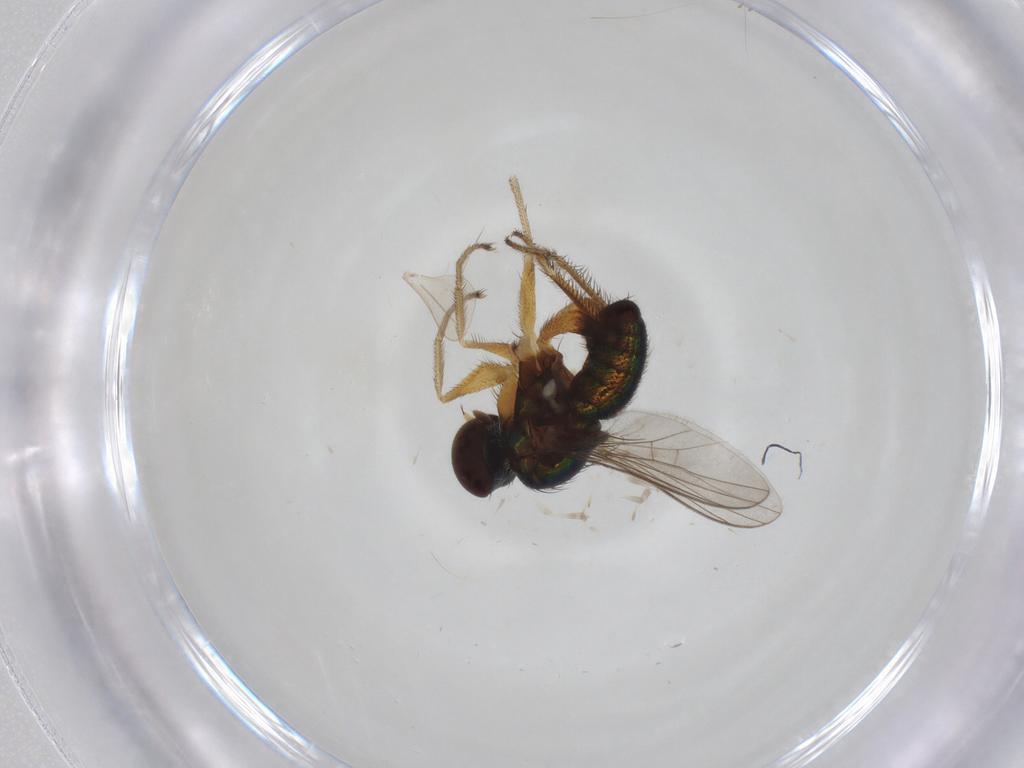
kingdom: Animalia
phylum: Arthropoda
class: Insecta
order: Diptera
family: Cecidomyiidae
